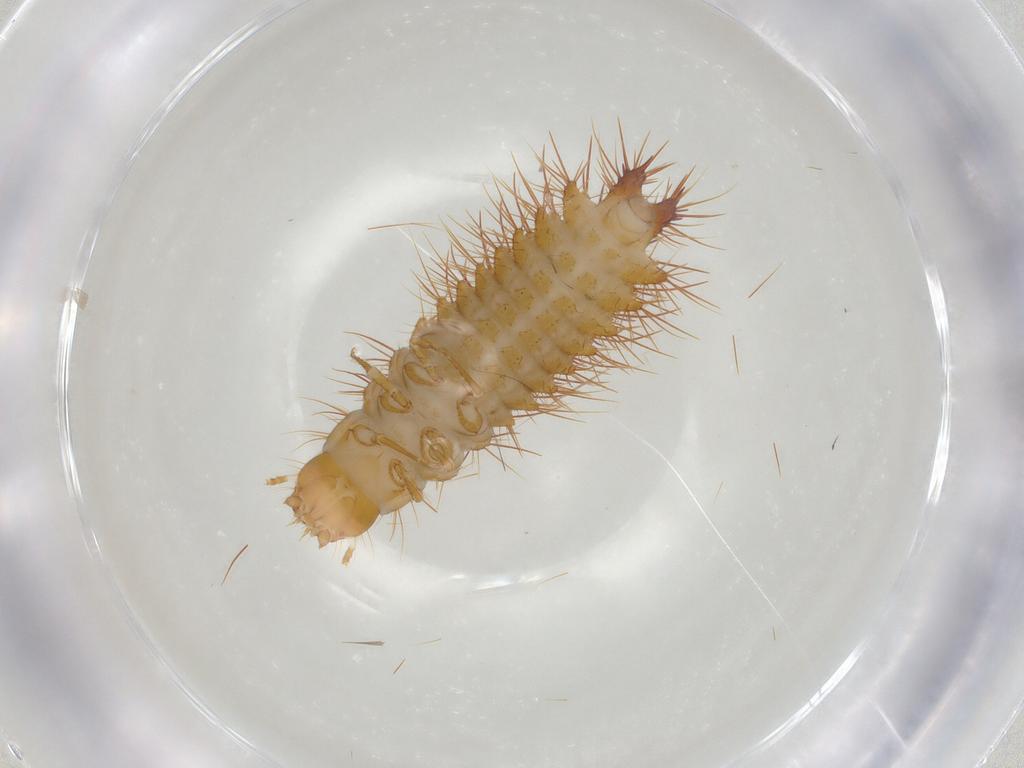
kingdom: Animalia
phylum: Arthropoda
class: Insecta
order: Coleoptera
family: Elateridae
